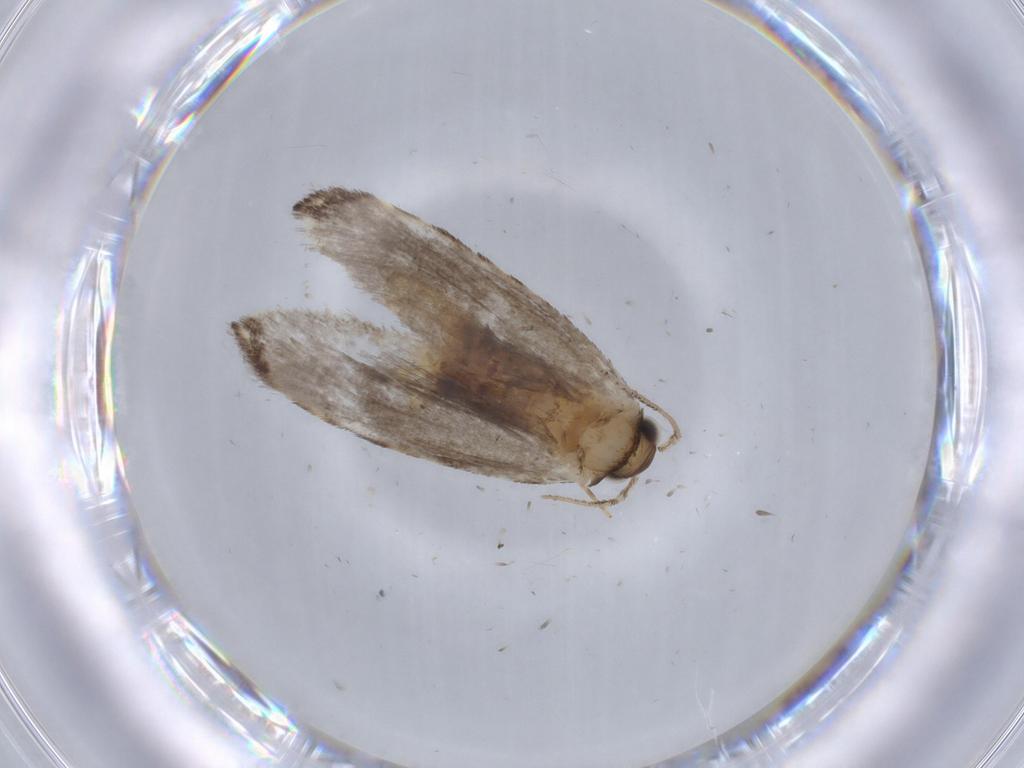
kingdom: Animalia
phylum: Arthropoda
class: Insecta
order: Lepidoptera
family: Tineidae
